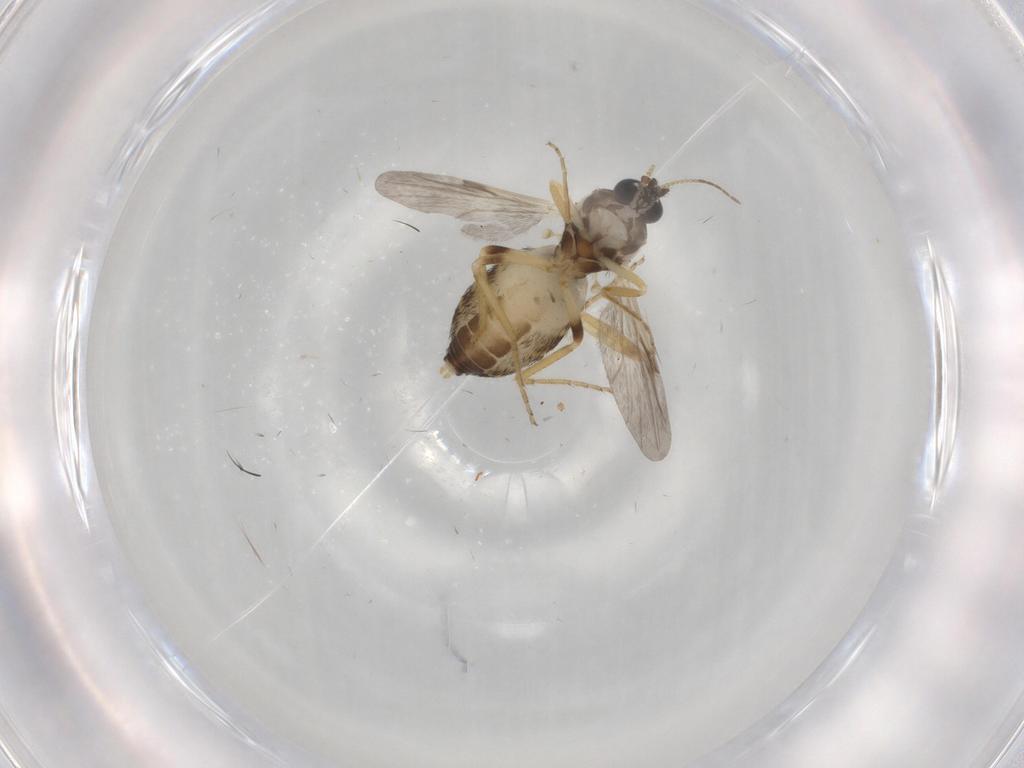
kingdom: Animalia
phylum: Arthropoda
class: Insecta
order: Diptera
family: Ceratopogonidae
